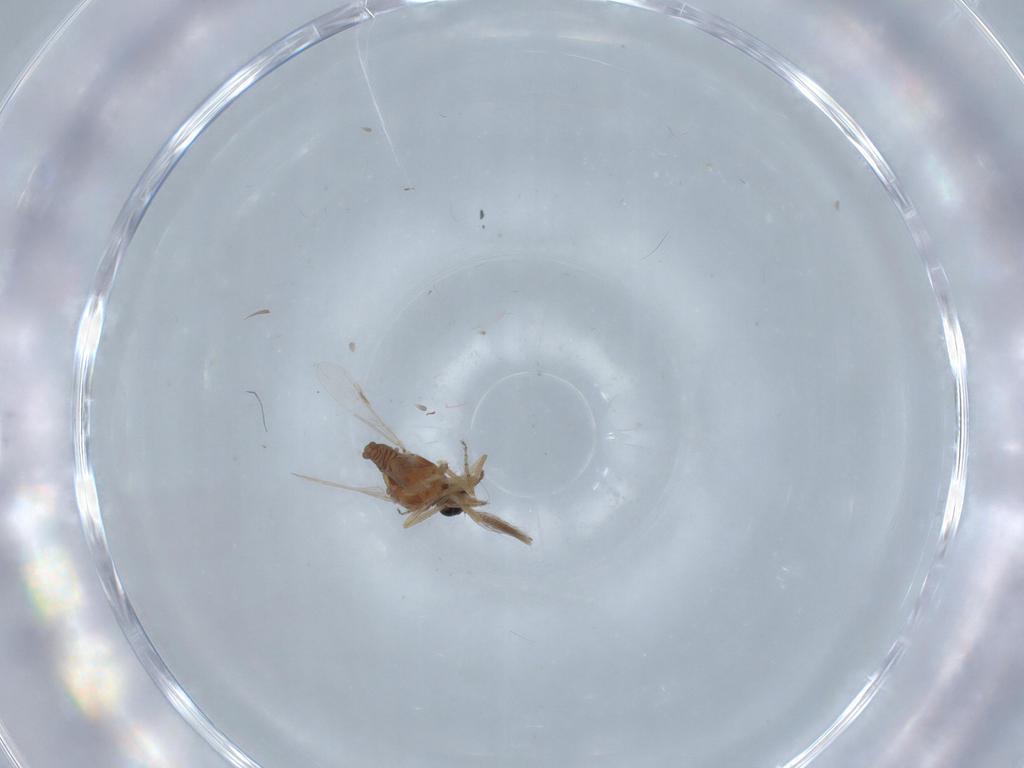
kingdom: Animalia
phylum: Arthropoda
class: Insecta
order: Diptera
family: Ceratopogonidae
